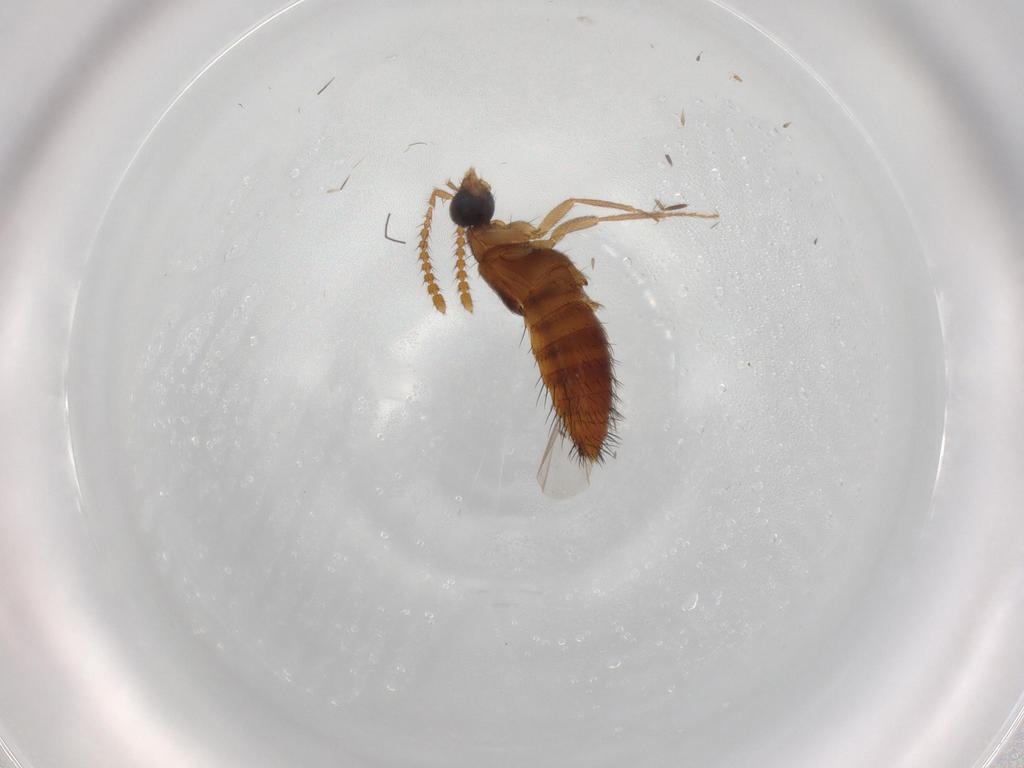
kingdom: Animalia
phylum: Arthropoda
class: Insecta
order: Coleoptera
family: Staphylinidae
